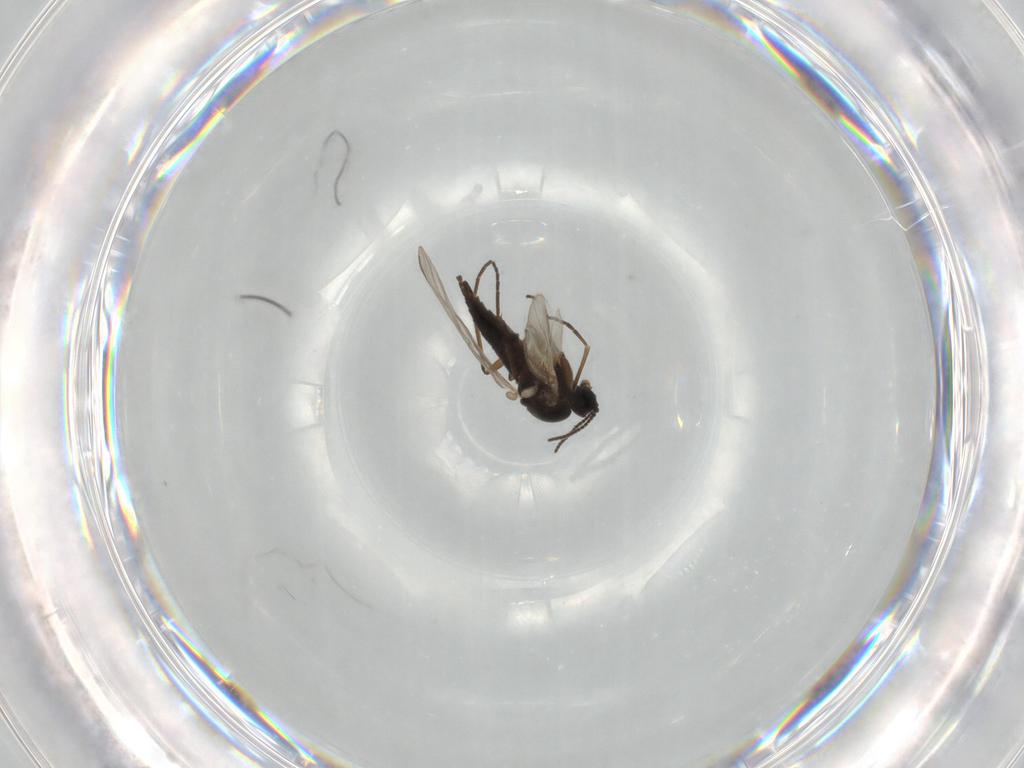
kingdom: Animalia
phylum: Arthropoda
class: Insecta
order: Diptera
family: Sciaridae
